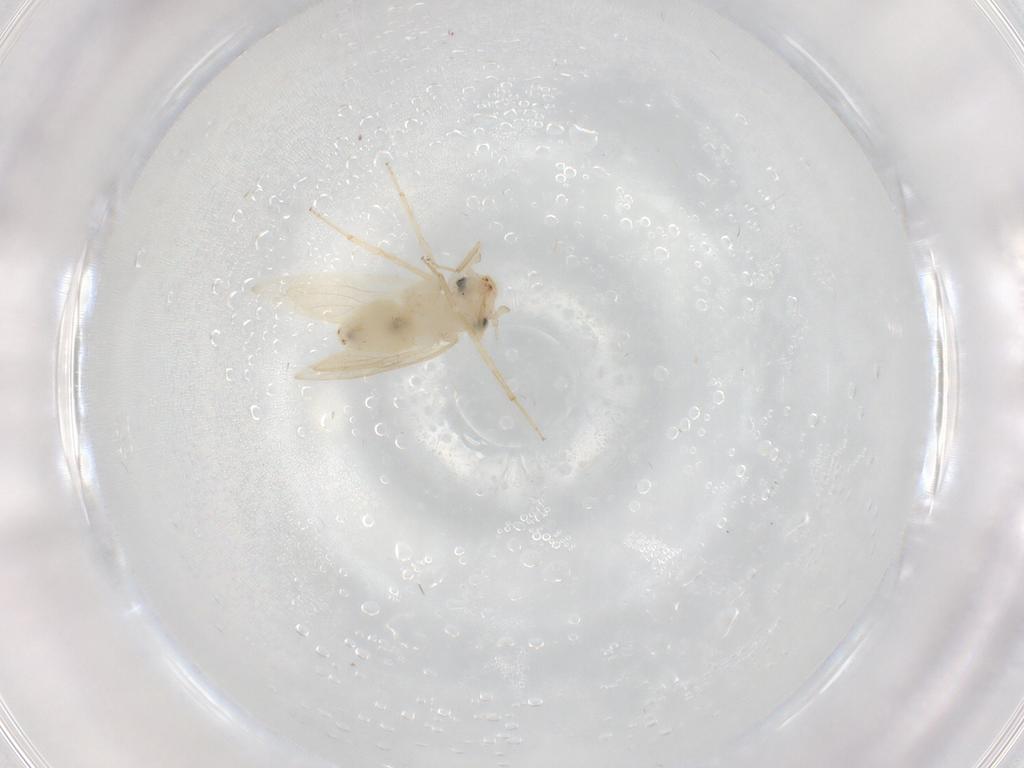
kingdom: Animalia
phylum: Arthropoda
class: Insecta
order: Psocodea
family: Lepidopsocidae
